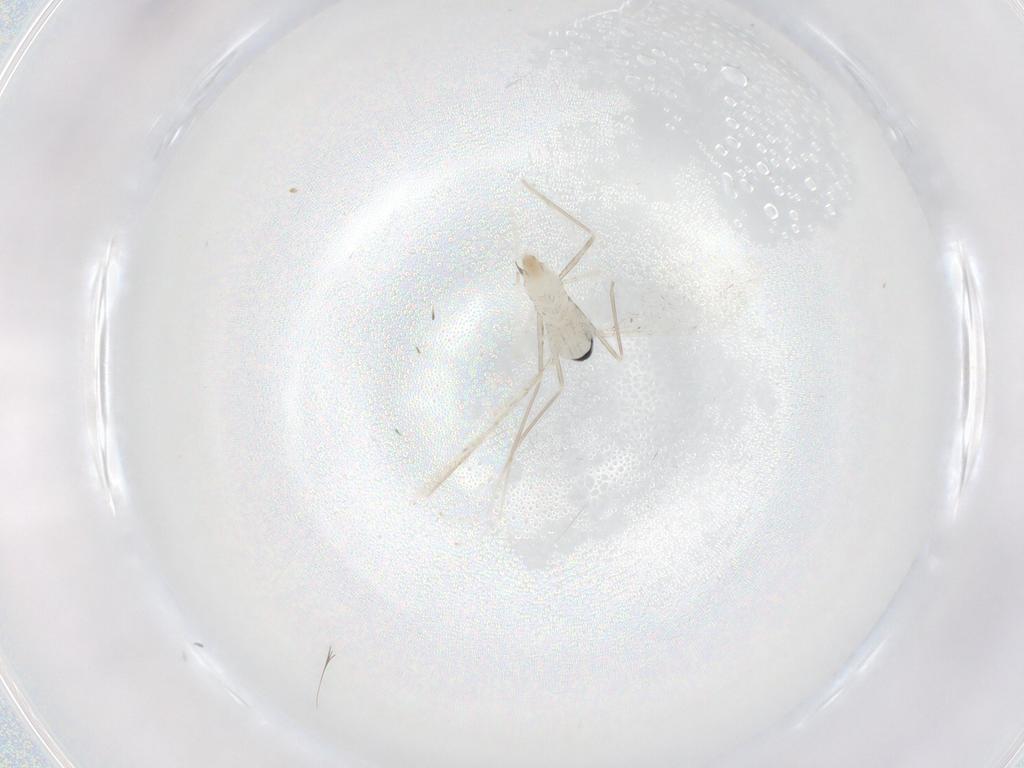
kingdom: Animalia
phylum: Arthropoda
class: Insecta
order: Diptera
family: Cecidomyiidae
